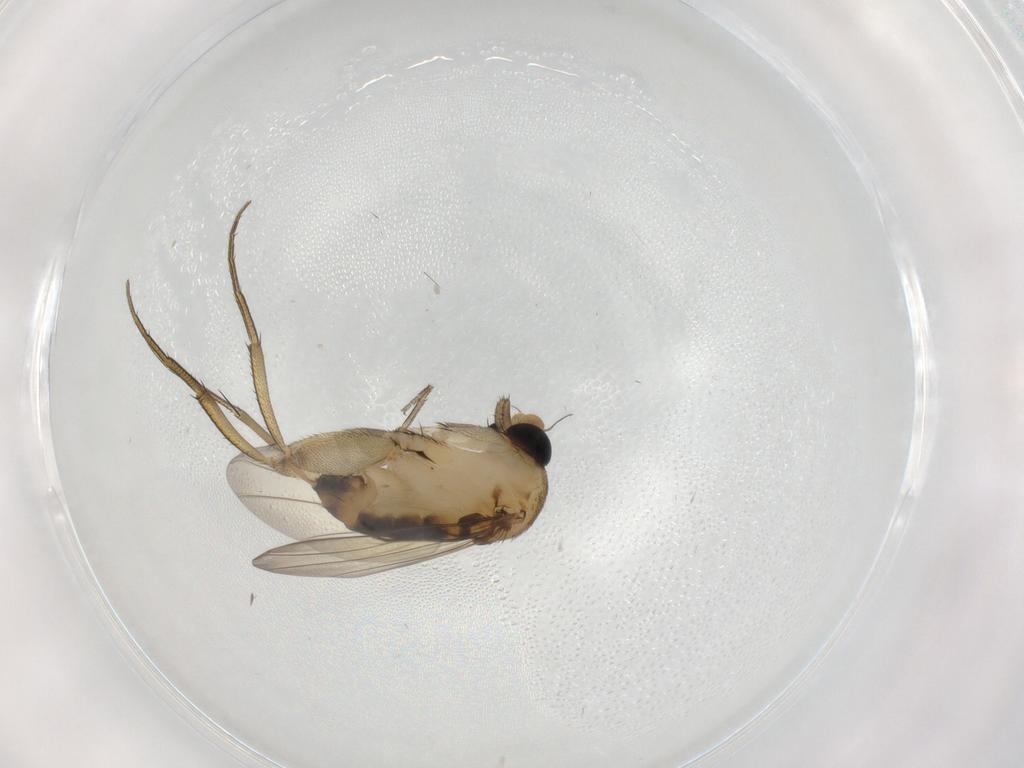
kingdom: Animalia
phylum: Arthropoda
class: Insecta
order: Diptera
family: Phoridae
